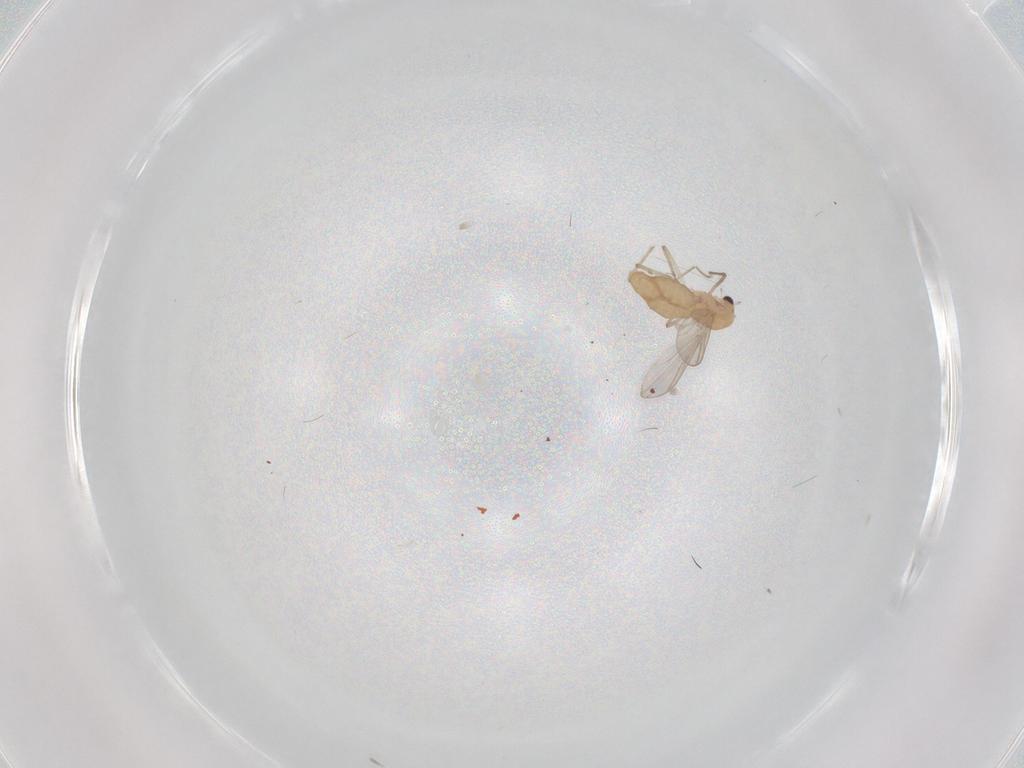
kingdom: Animalia
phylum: Arthropoda
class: Insecta
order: Diptera
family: Chironomidae
